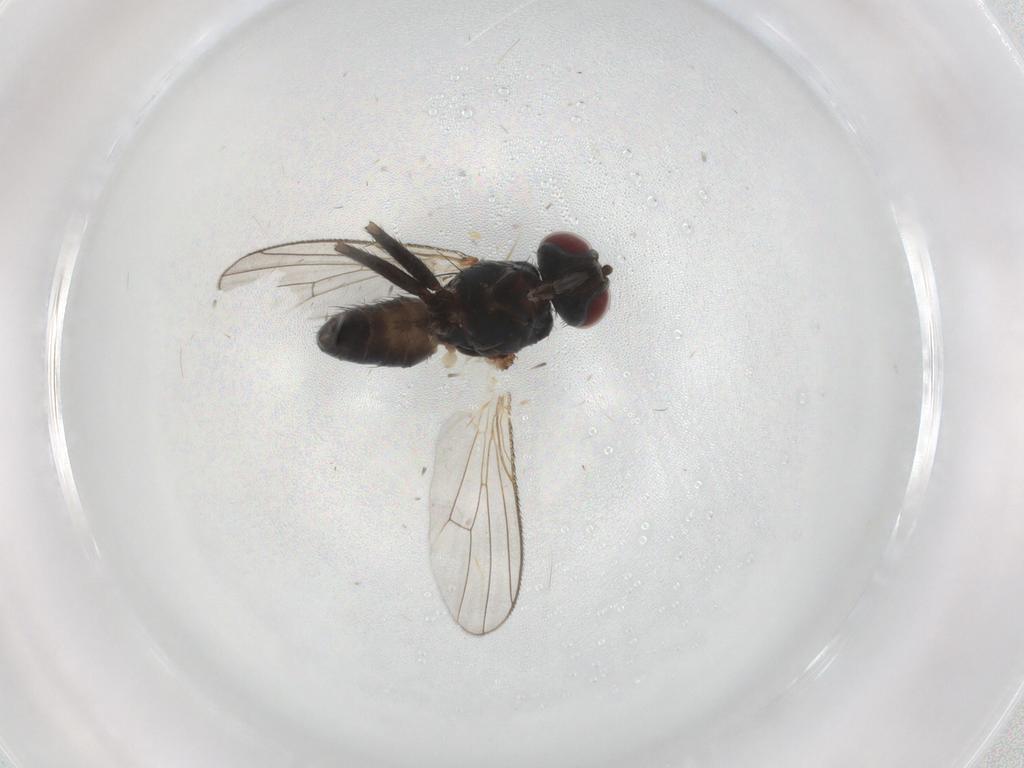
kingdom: Animalia
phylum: Arthropoda
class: Insecta
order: Diptera
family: Muscidae
